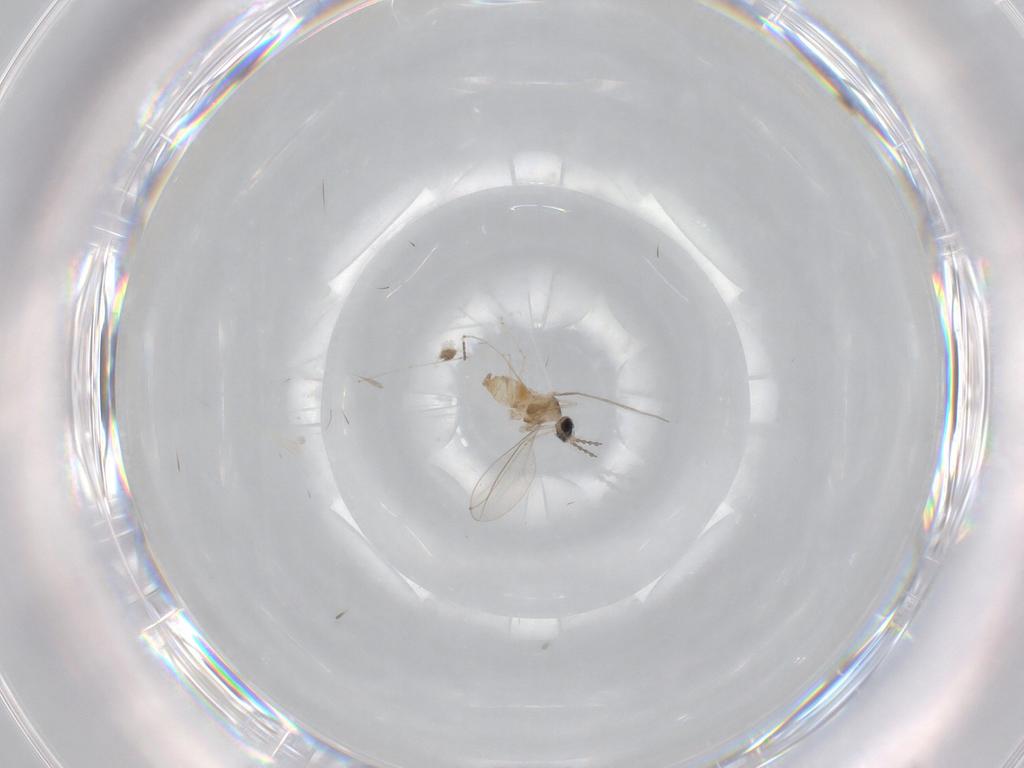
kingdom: Animalia
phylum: Arthropoda
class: Insecta
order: Diptera
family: Phoridae
